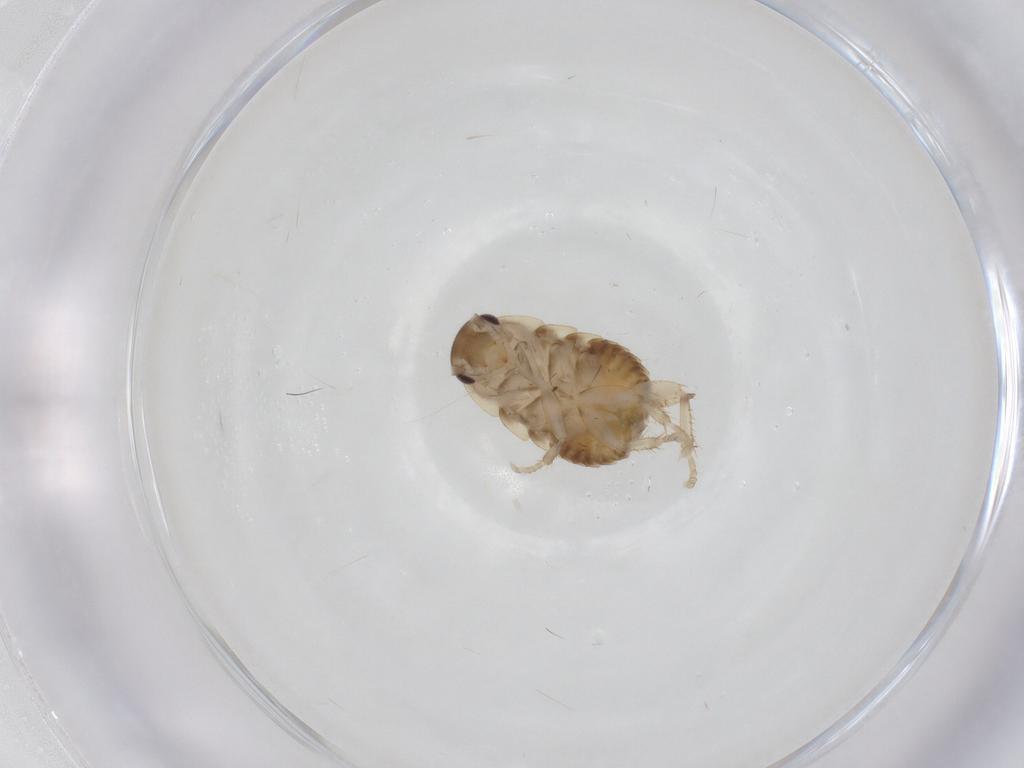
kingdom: Animalia
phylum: Arthropoda
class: Insecta
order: Blattodea
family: Ectobiidae
